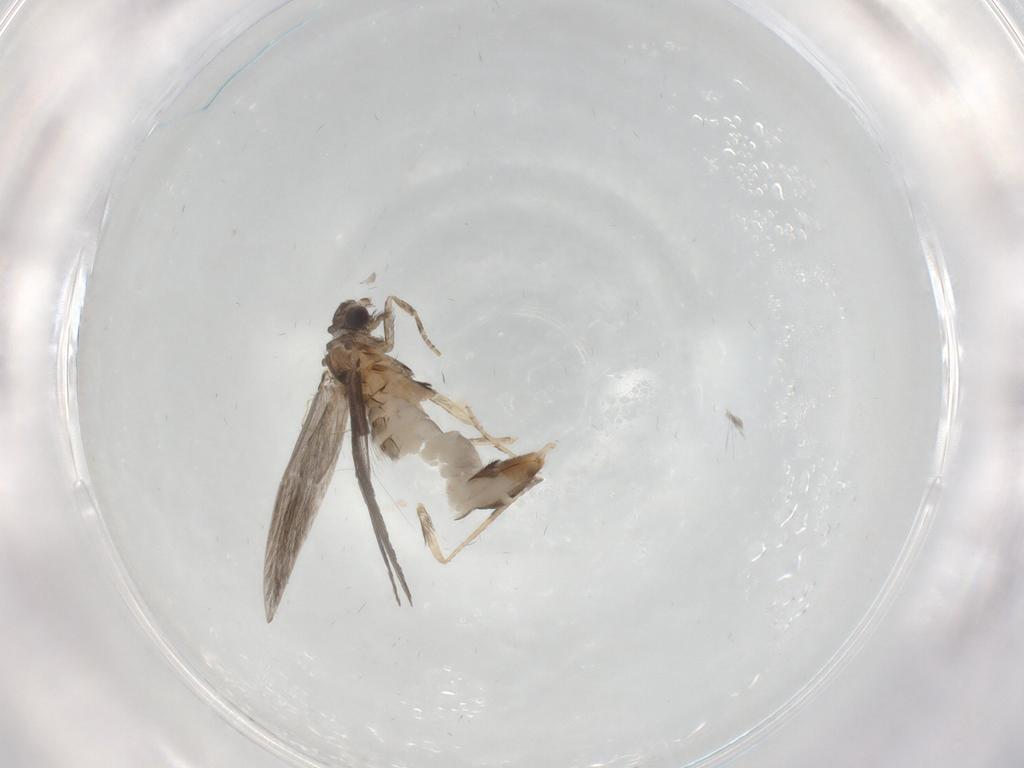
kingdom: Animalia
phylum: Arthropoda
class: Insecta
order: Trichoptera
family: Hydroptilidae
